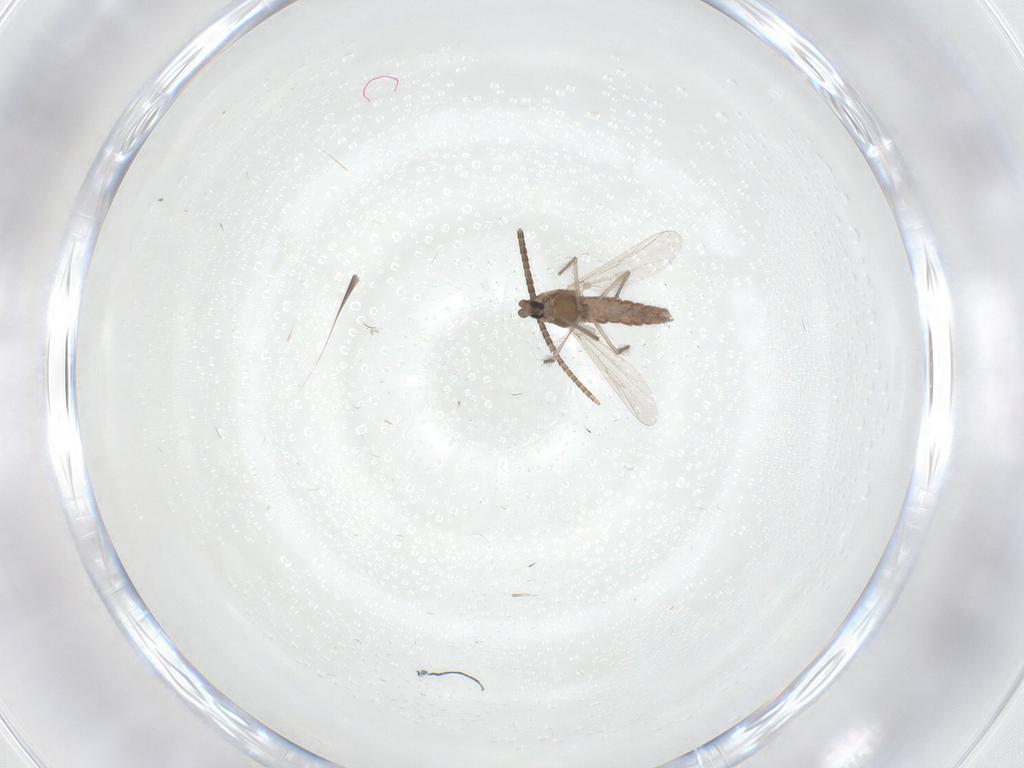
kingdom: Animalia
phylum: Arthropoda
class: Insecta
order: Diptera
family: Chironomidae
